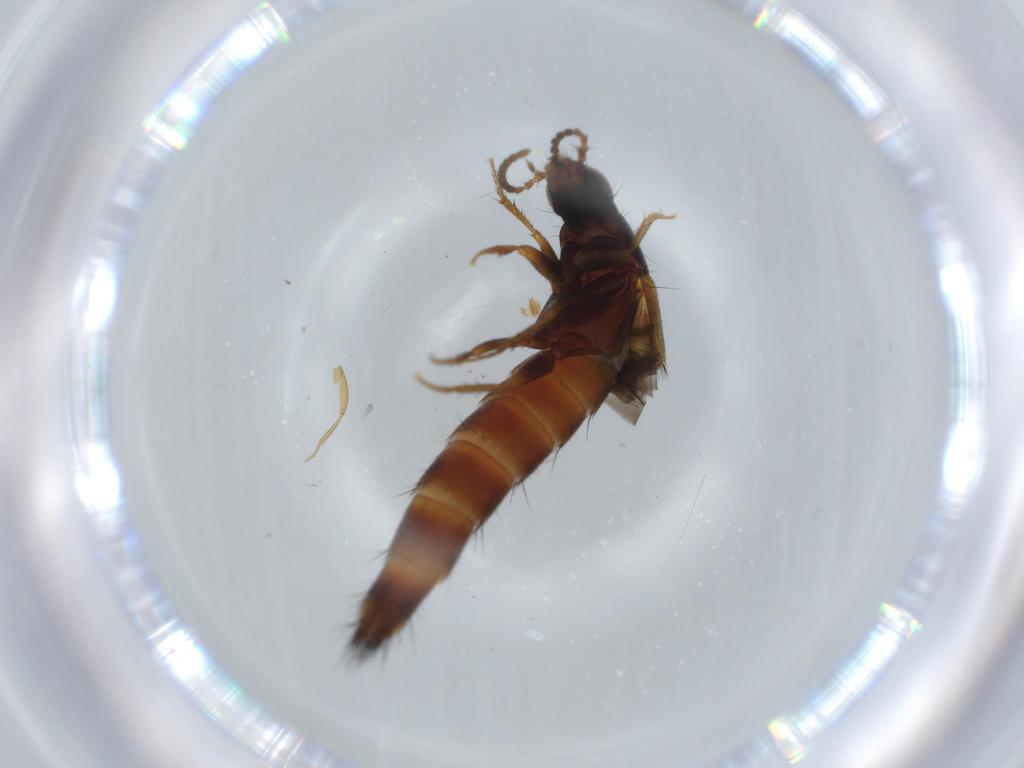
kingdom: Animalia
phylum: Arthropoda
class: Insecta
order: Coleoptera
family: Staphylinidae
